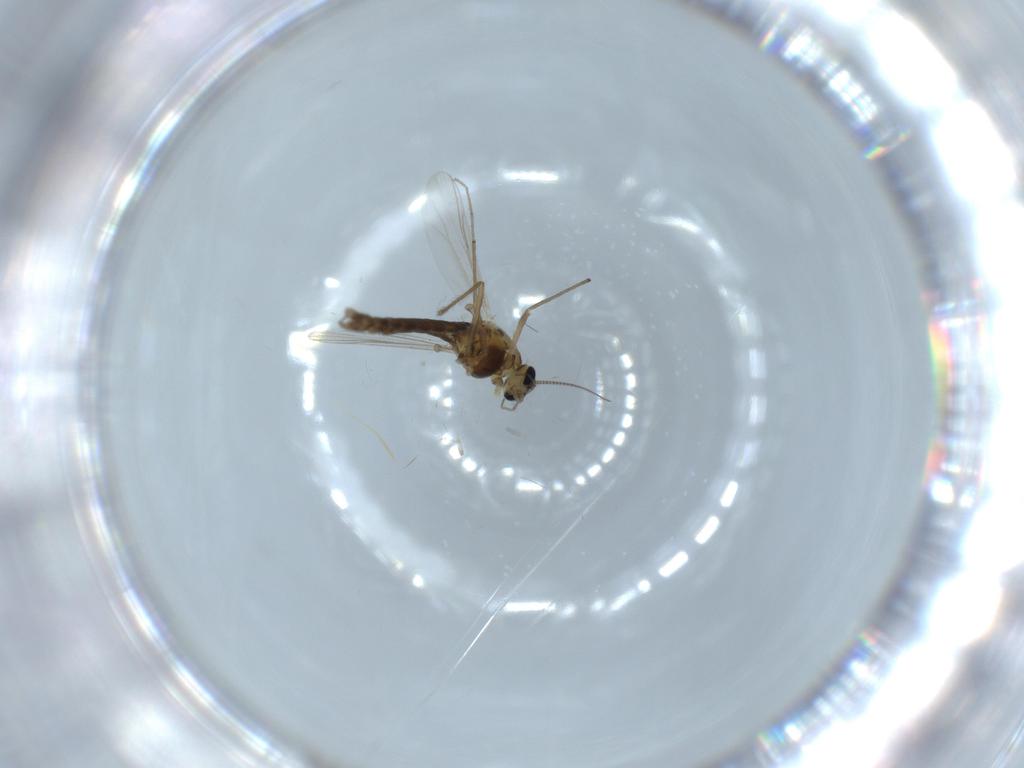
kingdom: Animalia
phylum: Arthropoda
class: Insecta
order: Diptera
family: Chironomidae
